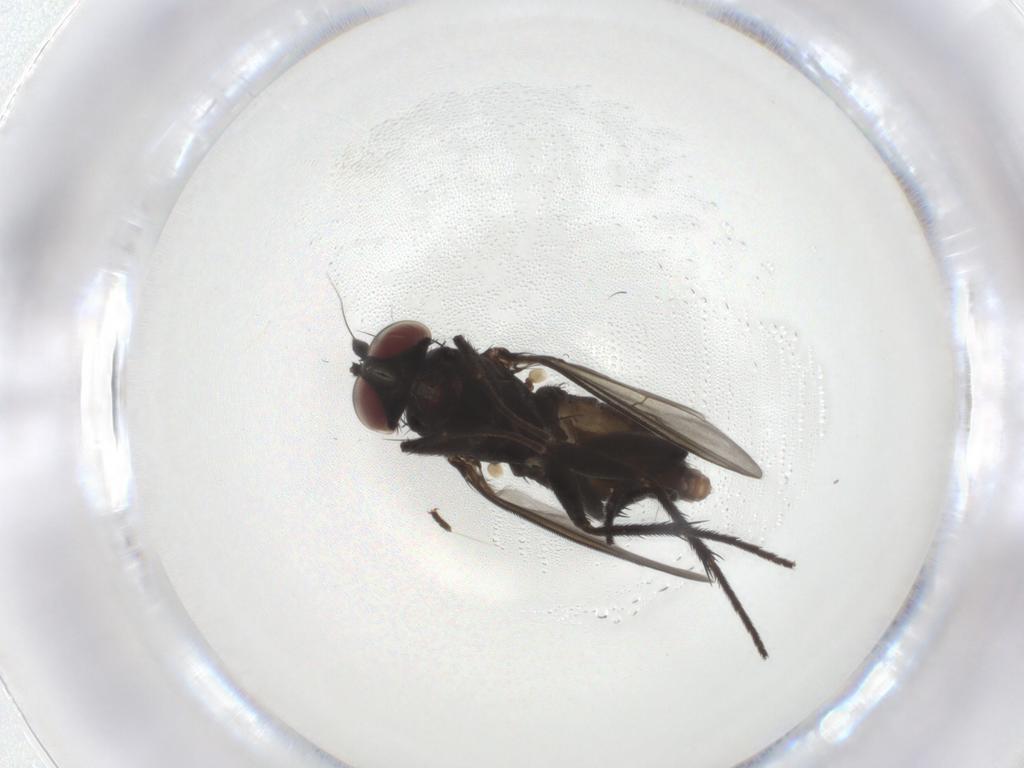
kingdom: Animalia
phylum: Arthropoda
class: Insecta
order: Diptera
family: Dolichopodidae
